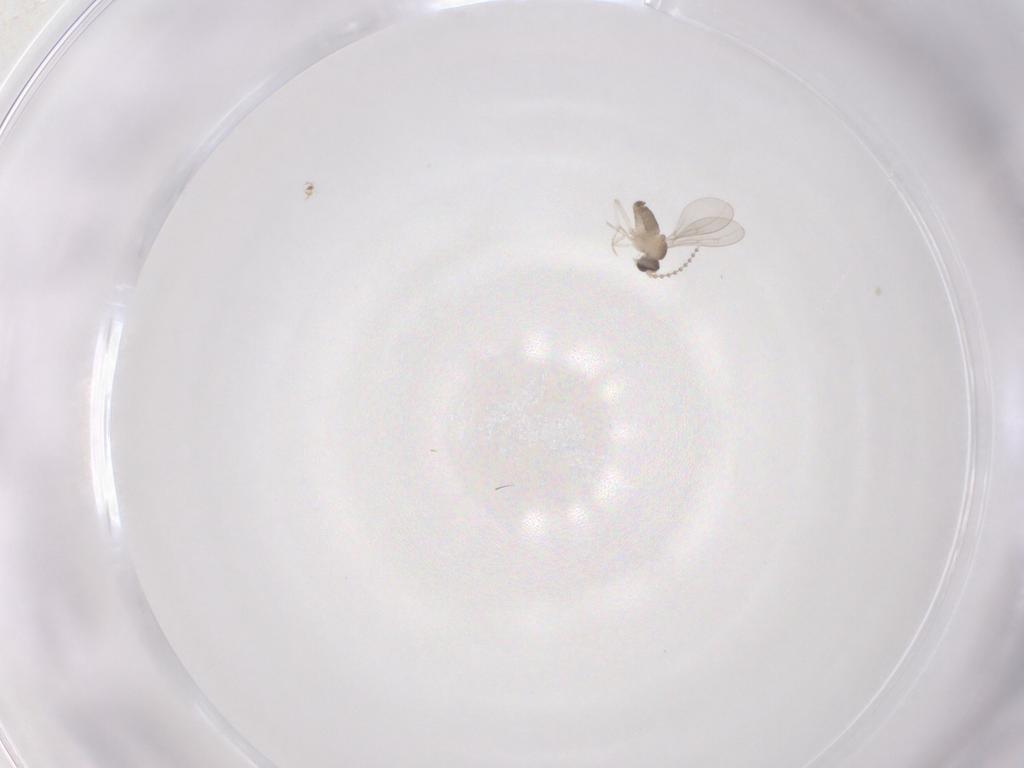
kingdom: Animalia
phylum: Arthropoda
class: Insecta
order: Diptera
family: Cecidomyiidae
